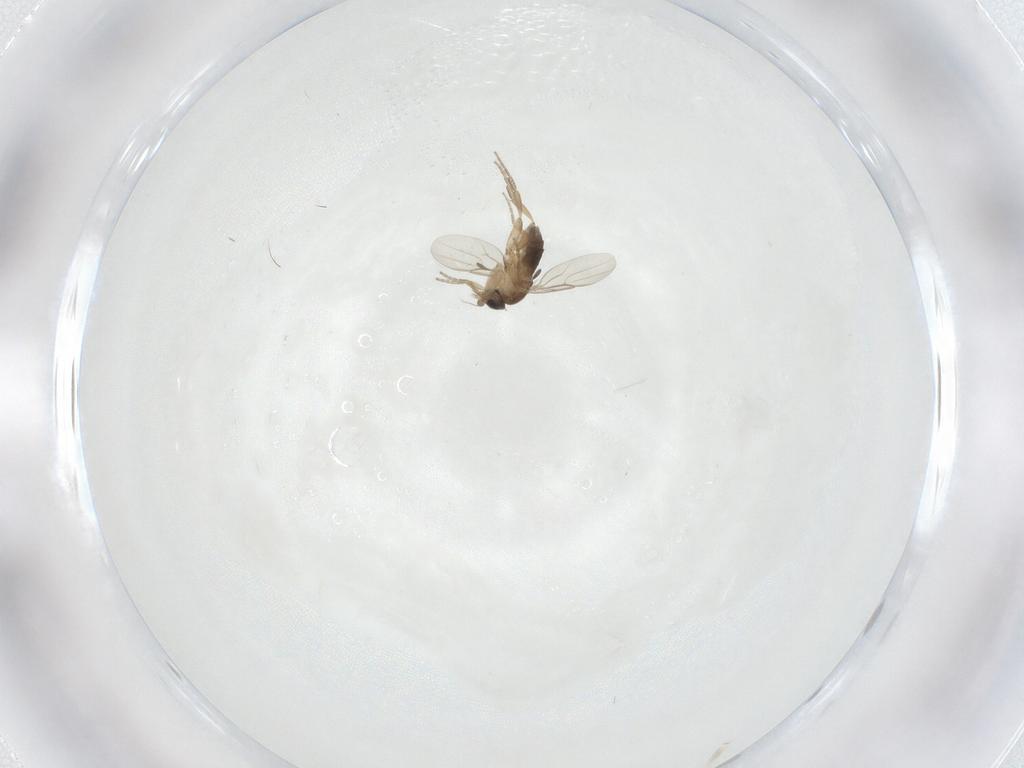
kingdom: Animalia
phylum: Arthropoda
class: Insecta
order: Diptera
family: Phoridae
